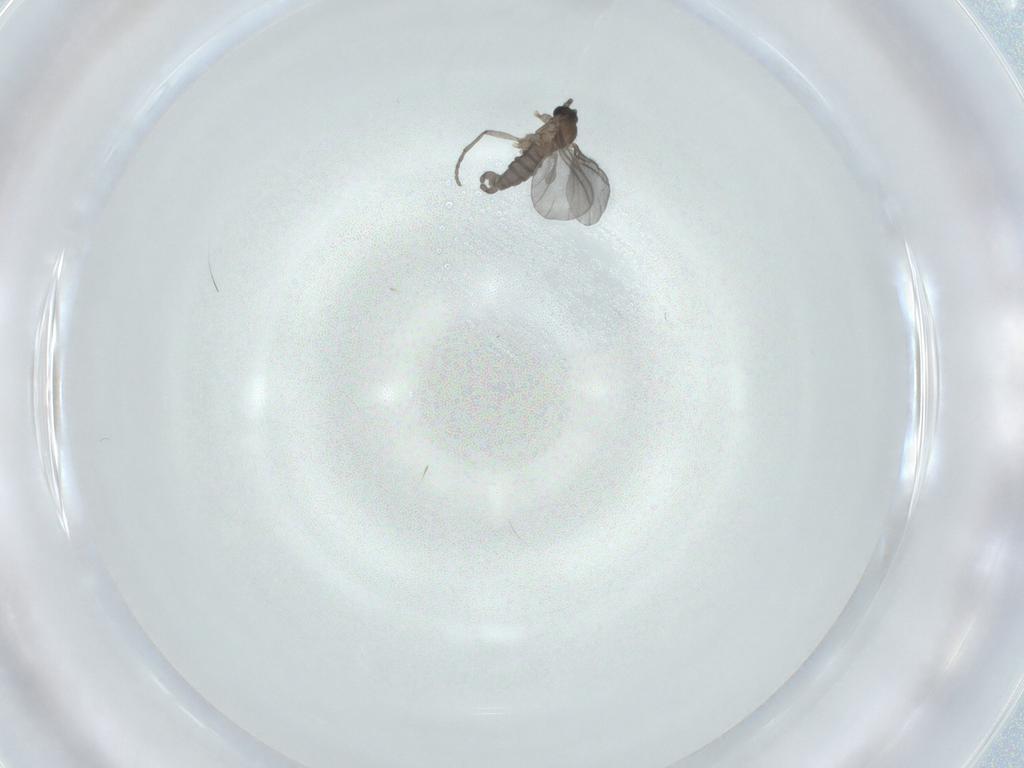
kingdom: Animalia
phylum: Arthropoda
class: Insecta
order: Diptera
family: Sciaridae
